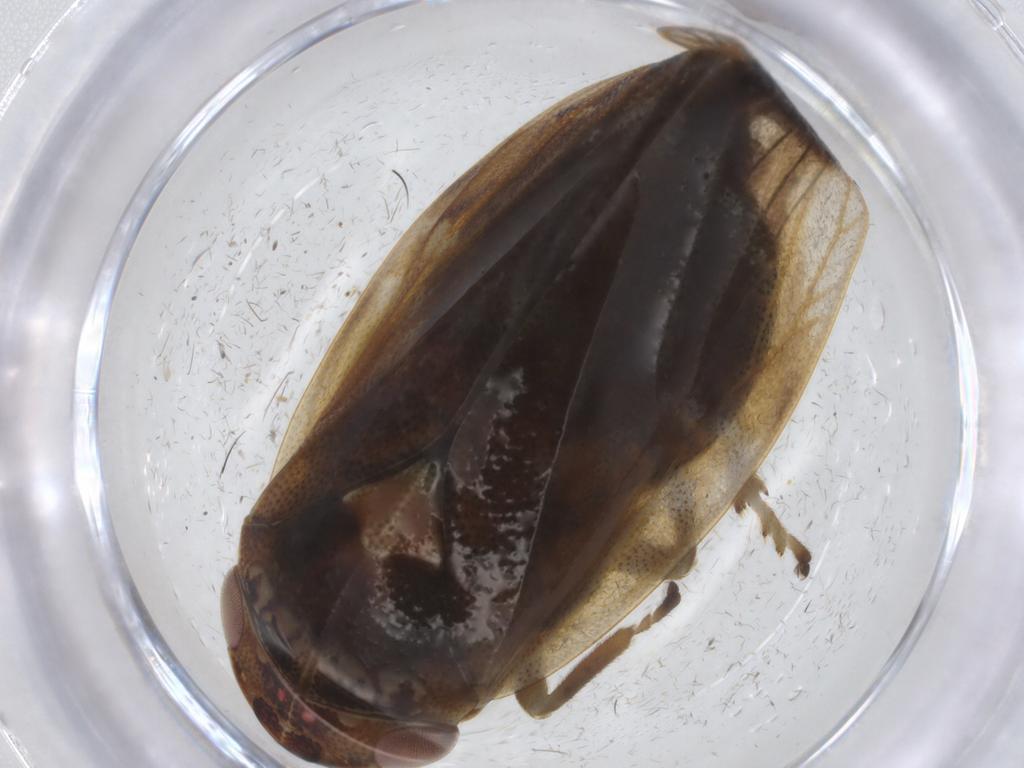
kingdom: Animalia
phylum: Arthropoda
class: Insecta
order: Hemiptera
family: Aphrophoridae
